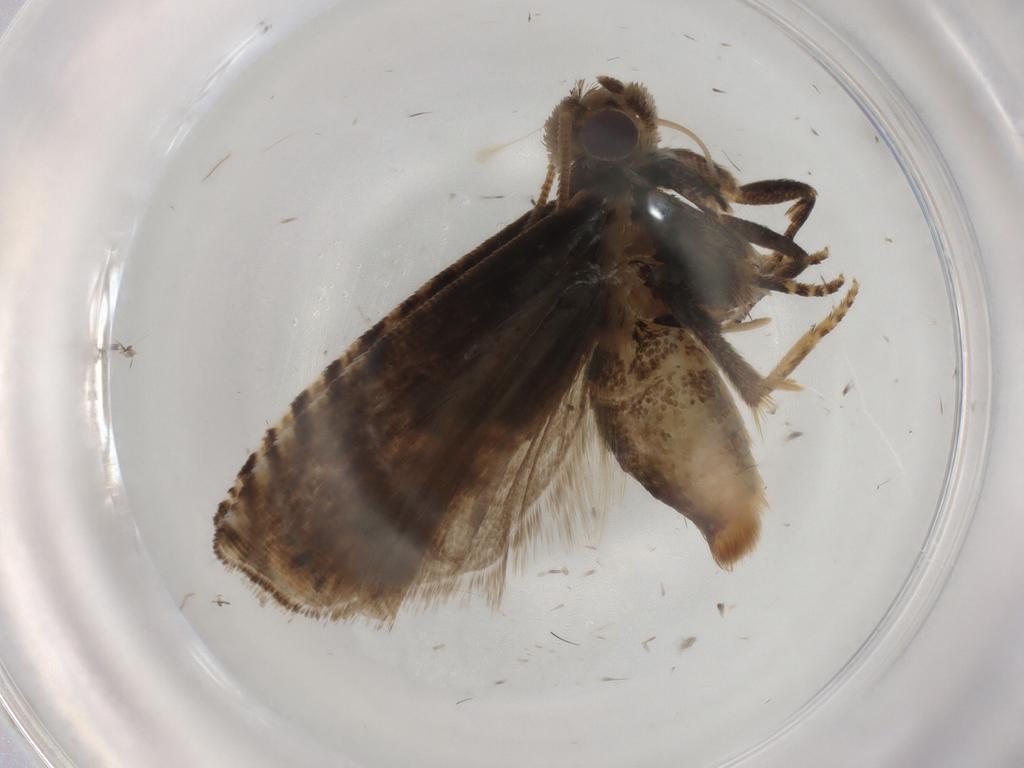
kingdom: Animalia
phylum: Arthropoda
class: Insecta
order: Lepidoptera
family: Tortricidae
